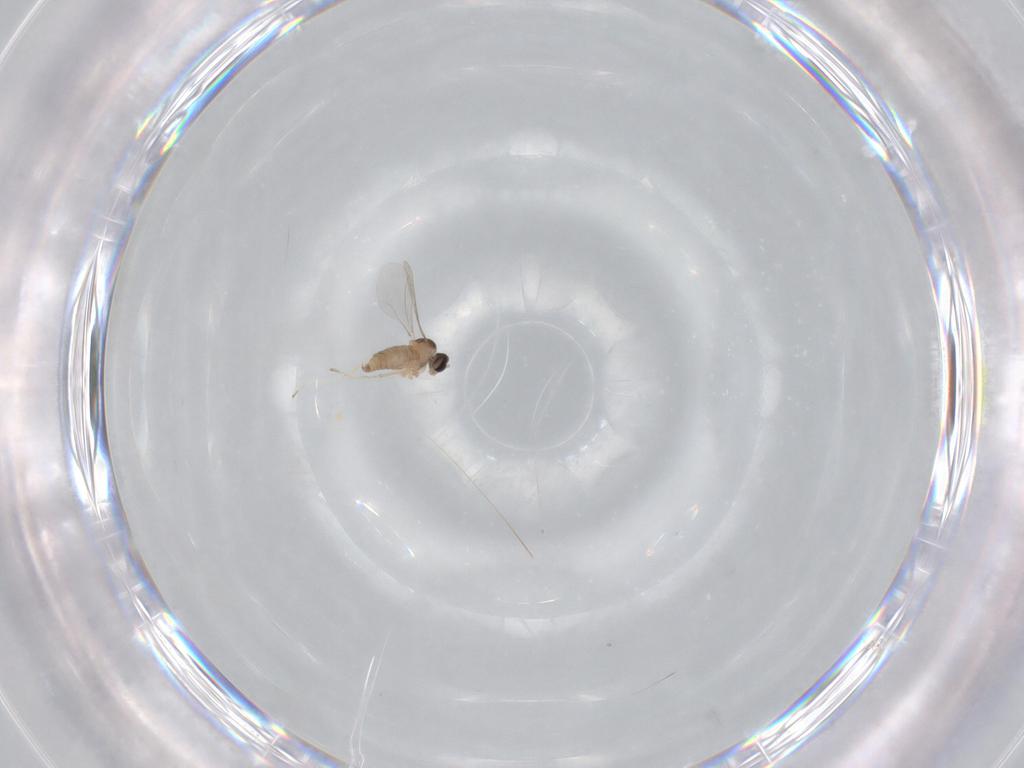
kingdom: Animalia
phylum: Arthropoda
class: Insecta
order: Diptera
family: Cecidomyiidae
